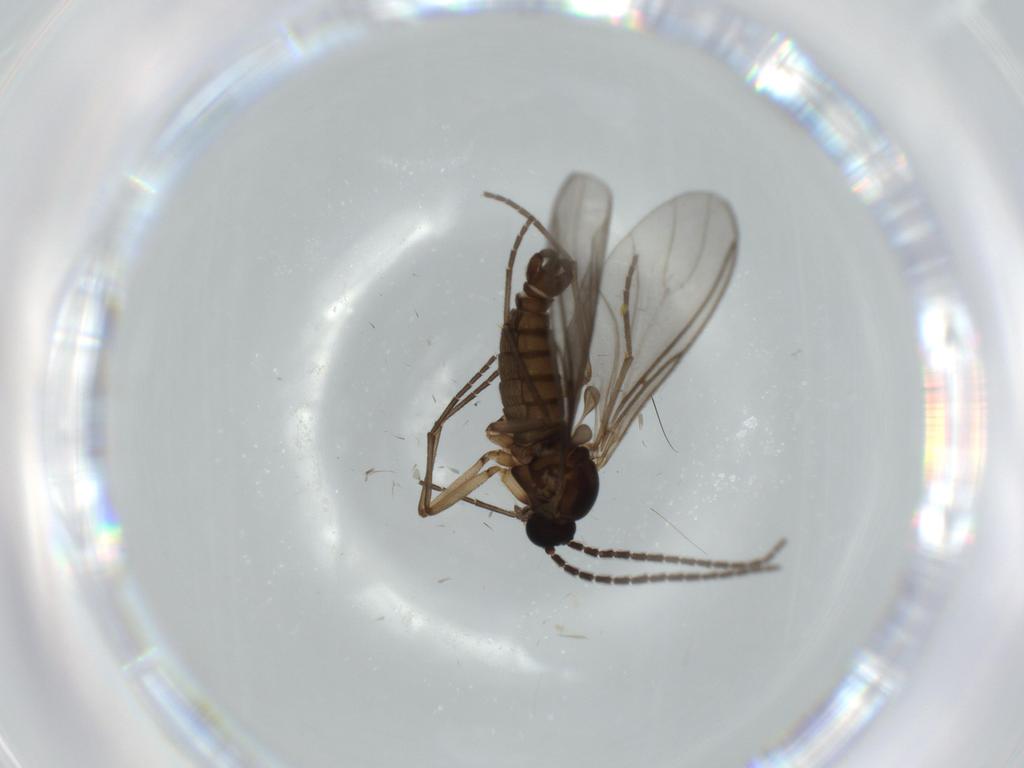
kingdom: Animalia
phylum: Arthropoda
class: Insecta
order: Diptera
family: Sciaridae
